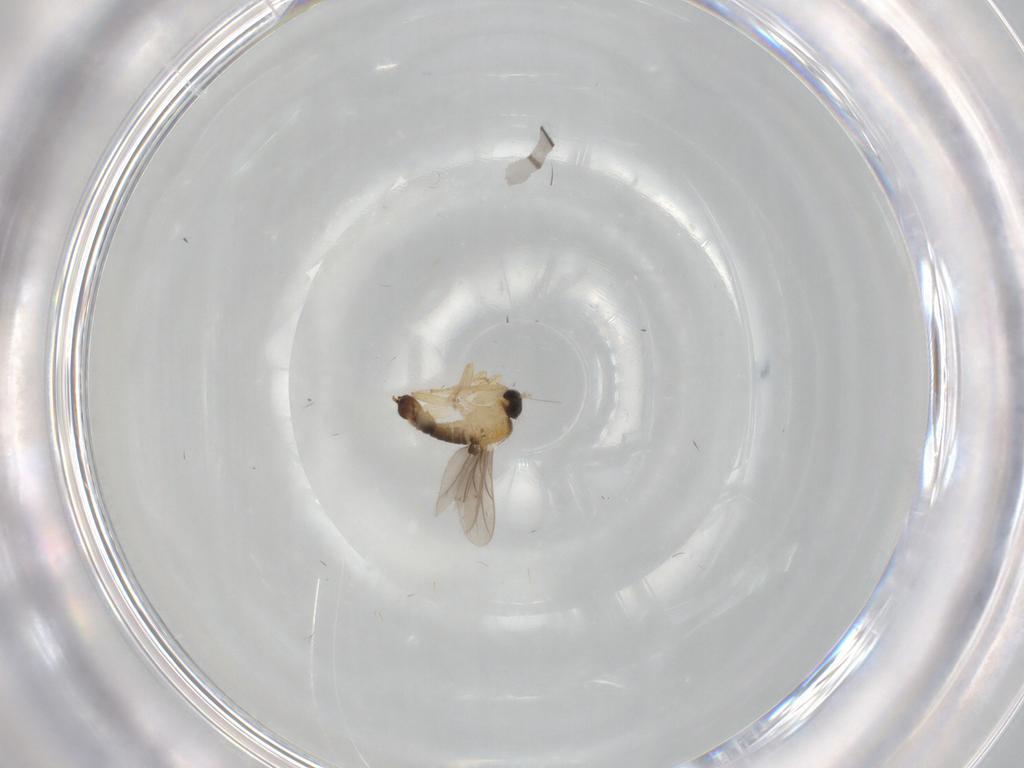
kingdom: Animalia
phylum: Arthropoda
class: Insecta
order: Diptera
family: Hybotidae
